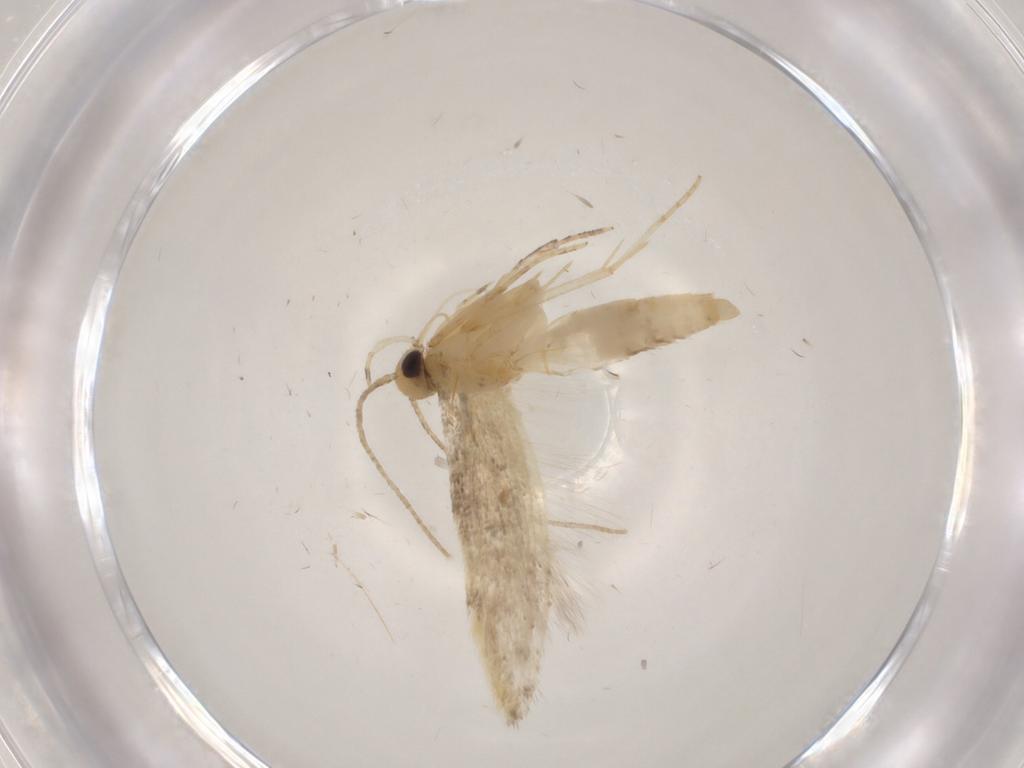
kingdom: Animalia
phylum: Arthropoda
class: Insecta
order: Lepidoptera
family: Autostichidae
